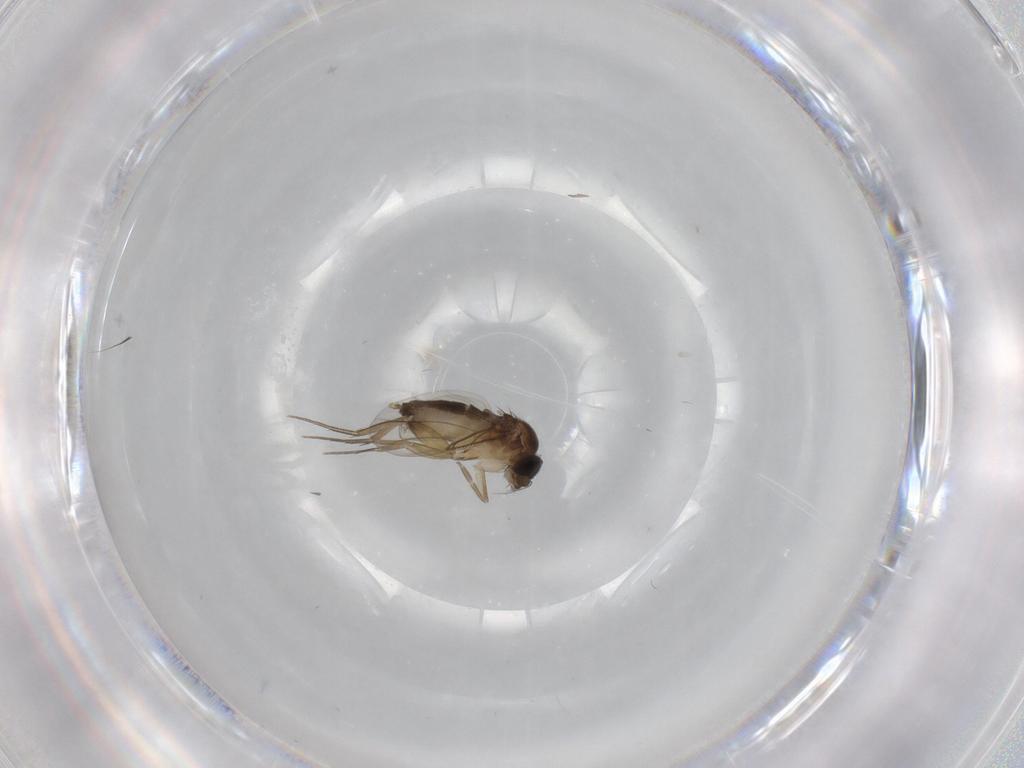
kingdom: Animalia
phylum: Arthropoda
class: Insecta
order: Diptera
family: Phoridae
